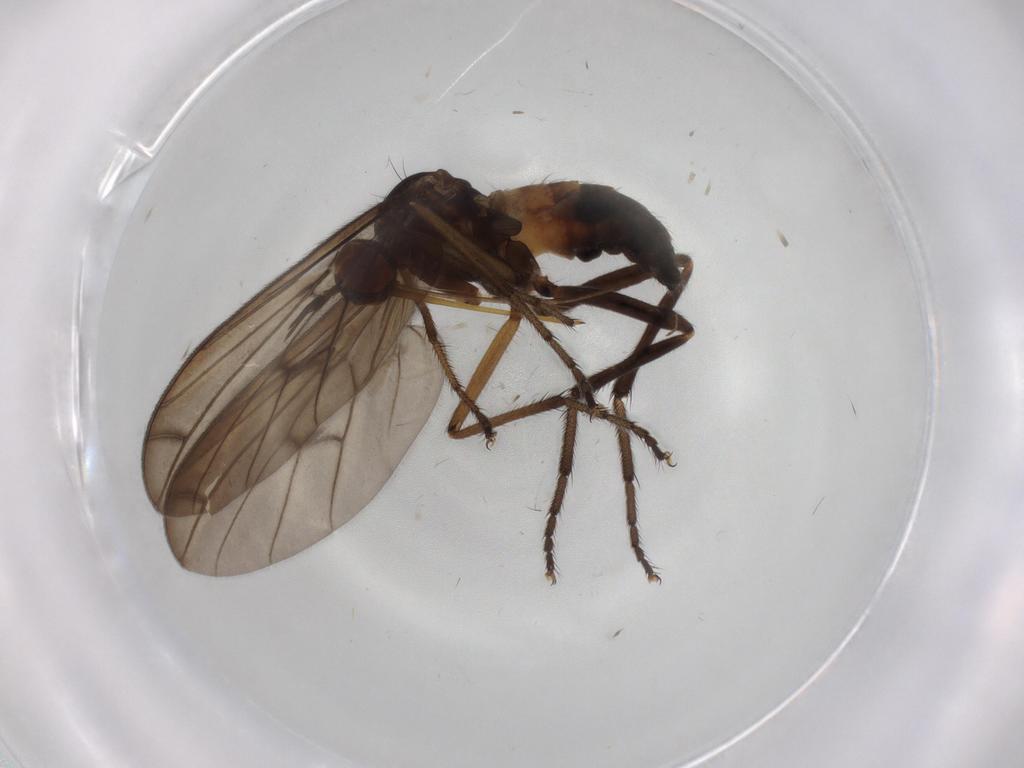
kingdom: Animalia
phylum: Arthropoda
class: Insecta
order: Diptera
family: Empididae
